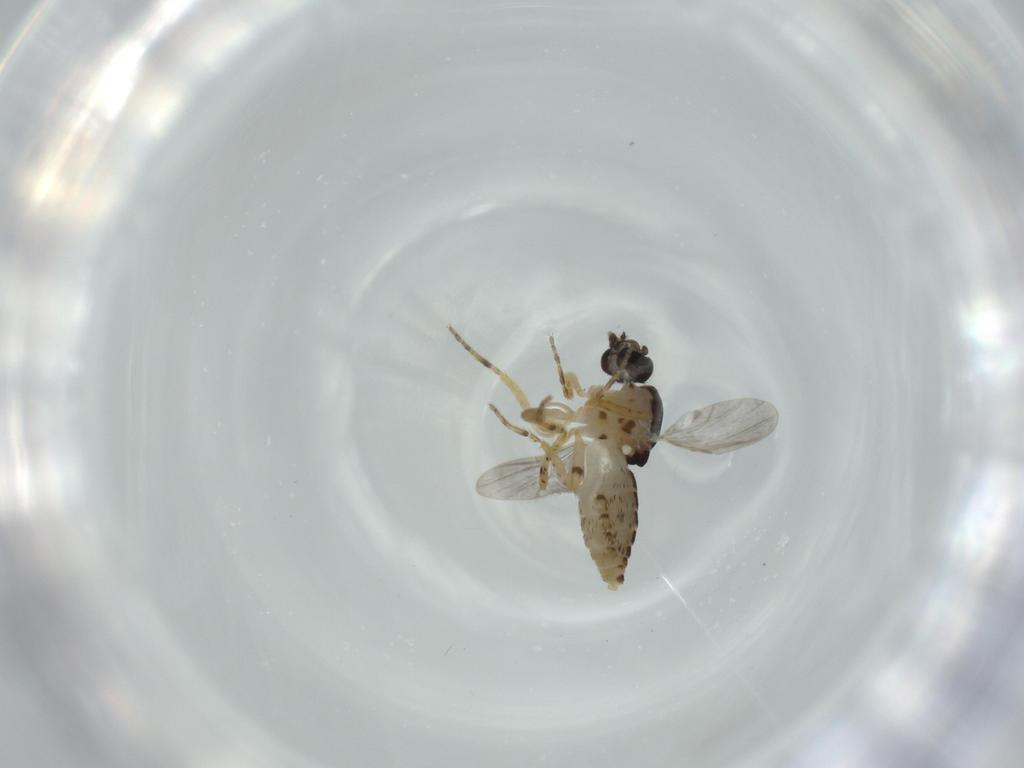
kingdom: Animalia
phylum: Arthropoda
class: Insecta
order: Diptera
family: Ceratopogonidae
